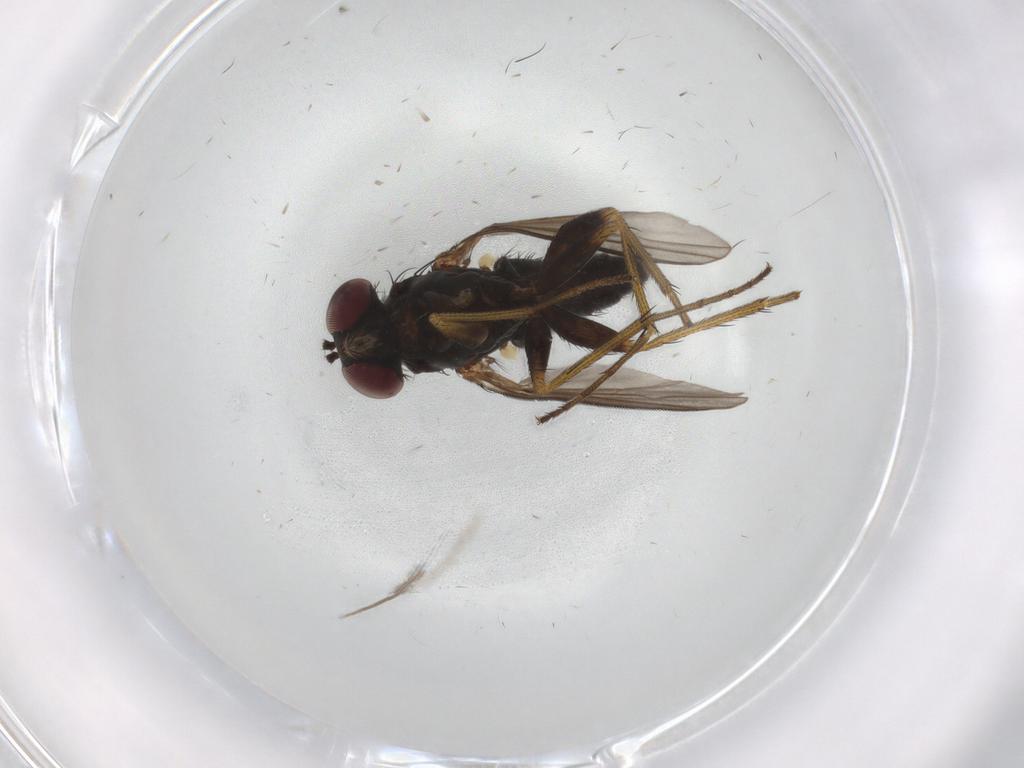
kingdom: Animalia
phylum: Arthropoda
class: Insecta
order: Diptera
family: Dolichopodidae
